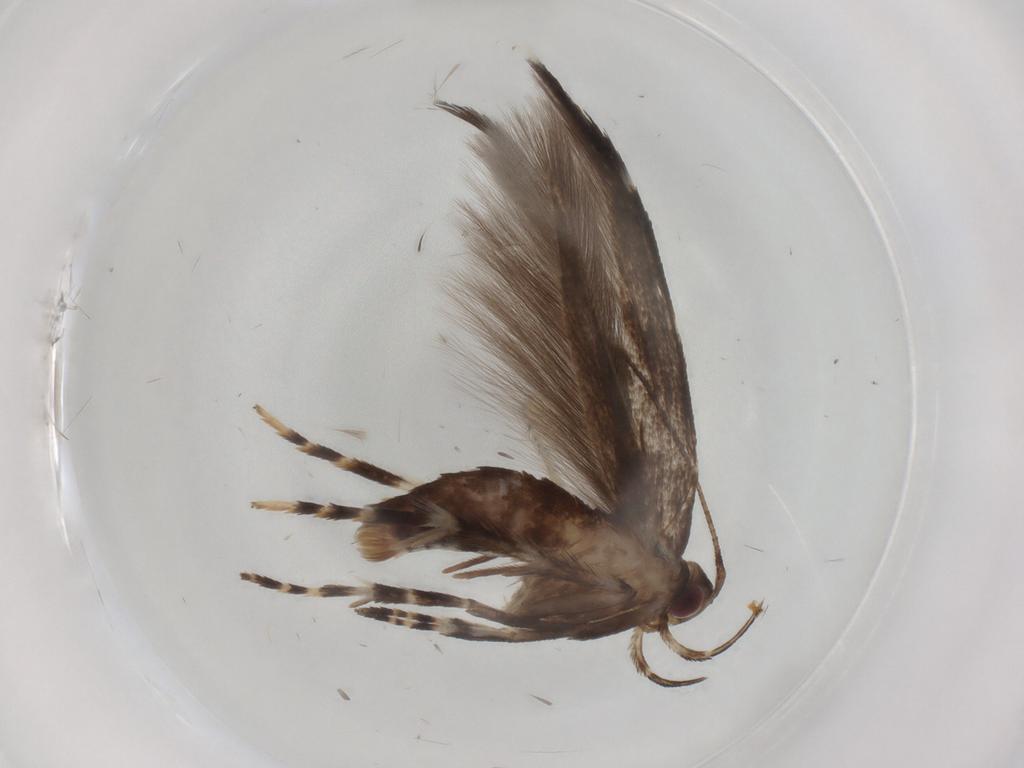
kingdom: Animalia
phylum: Arthropoda
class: Insecta
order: Lepidoptera
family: Cosmopterigidae
